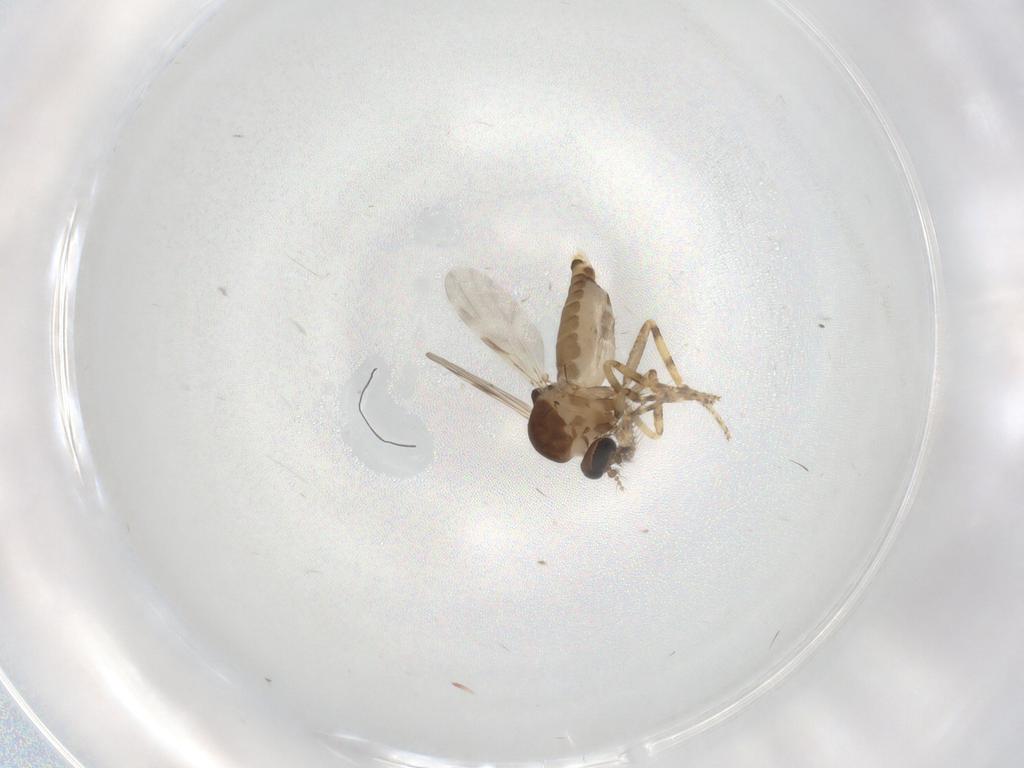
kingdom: Animalia
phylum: Arthropoda
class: Insecta
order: Diptera
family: Ceratopogonidae
